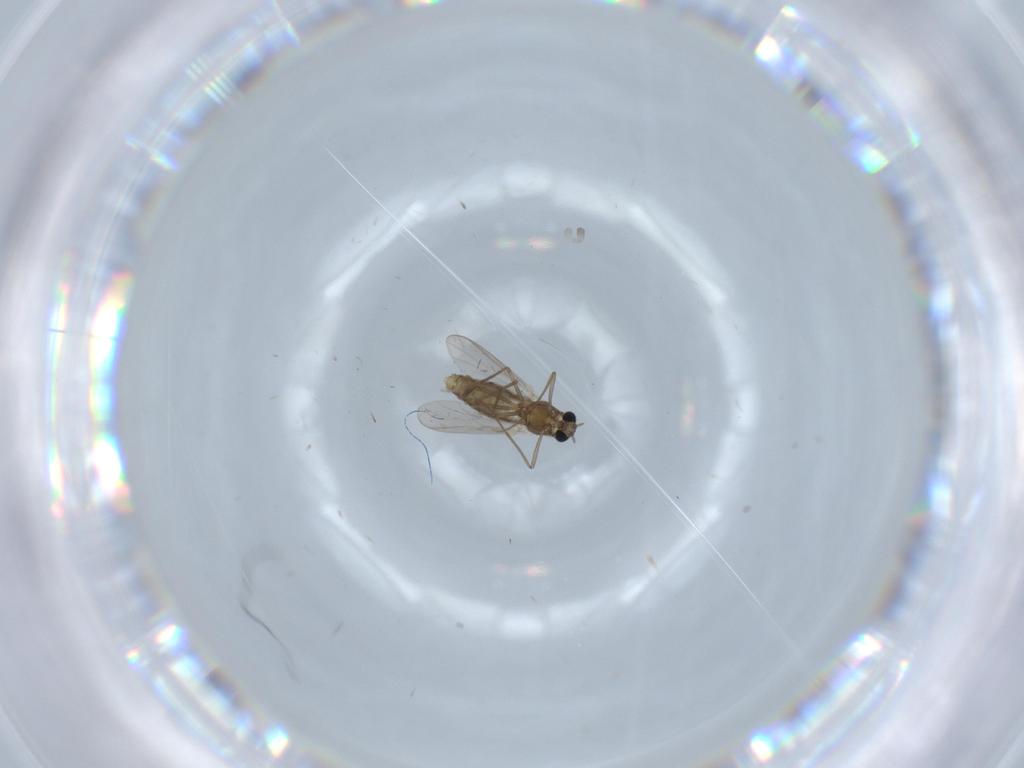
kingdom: Animalia
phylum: Arthropoda
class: Insecta
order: Diptera
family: Chironomidae
